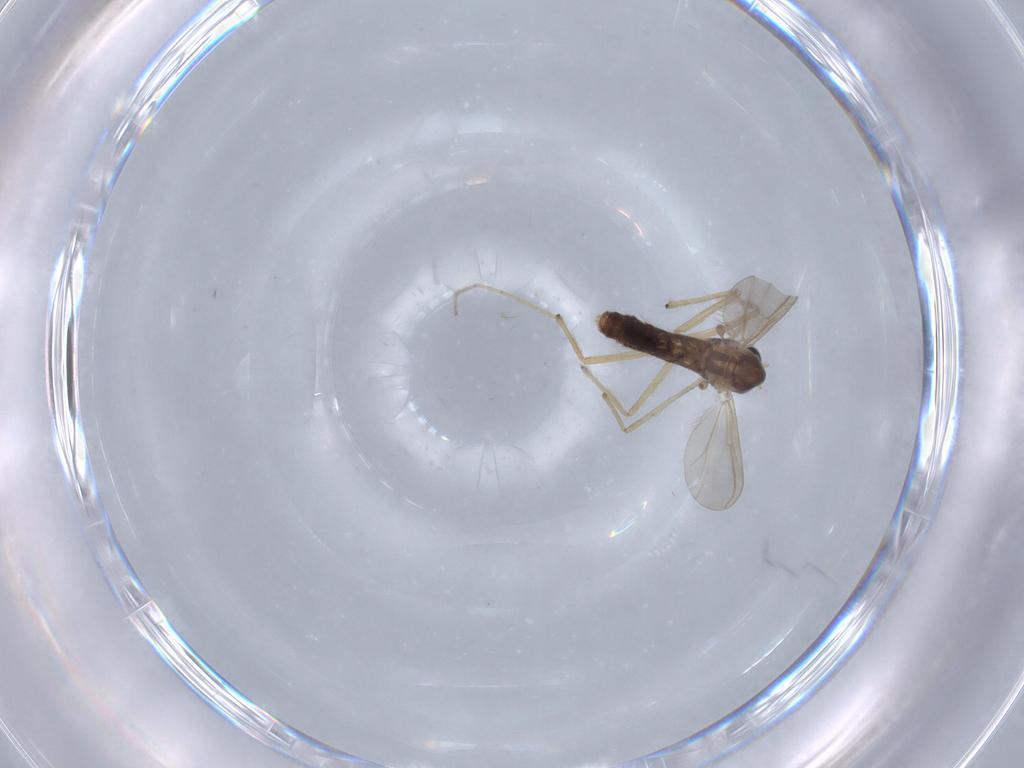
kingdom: Animalia
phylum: Arthropoda
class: Insecta
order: Diptera
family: Chironomidae
